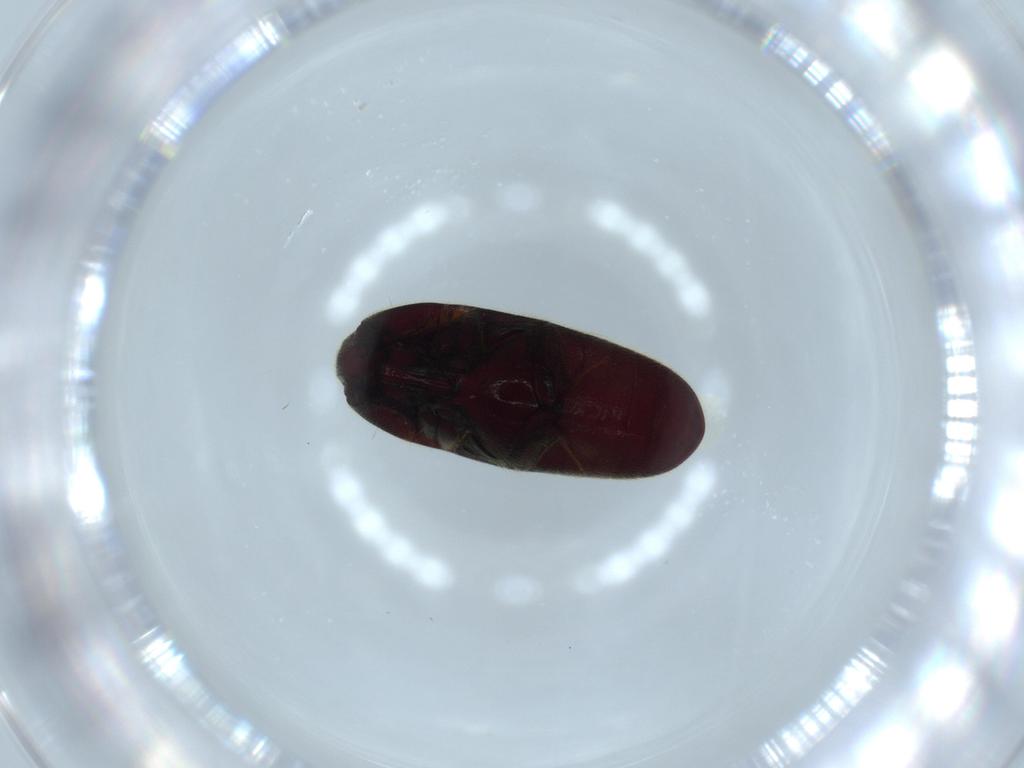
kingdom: Animalia
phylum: Arthropoda
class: Insecta
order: Coleoptera
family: Throscidae
